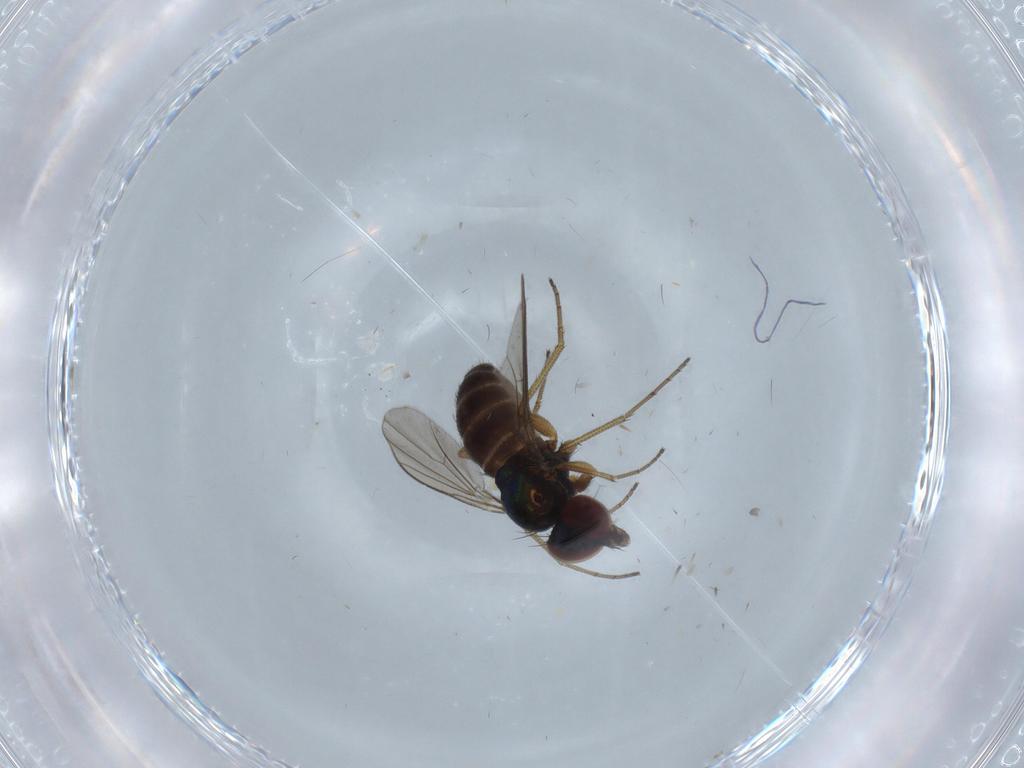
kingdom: Animalia
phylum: Arthropoda
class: Insecta
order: Diptera
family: Dolichopodidae
